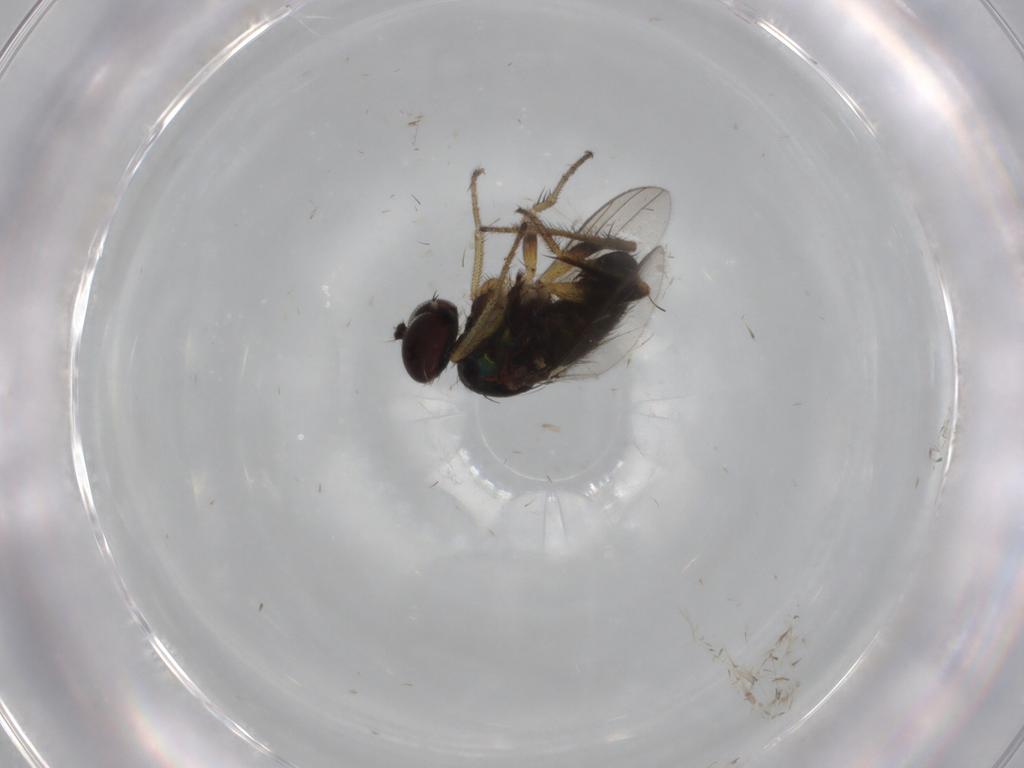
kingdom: Animalia
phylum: Arthropoda
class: Insecta
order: Diptera
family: Dolichopodidae
